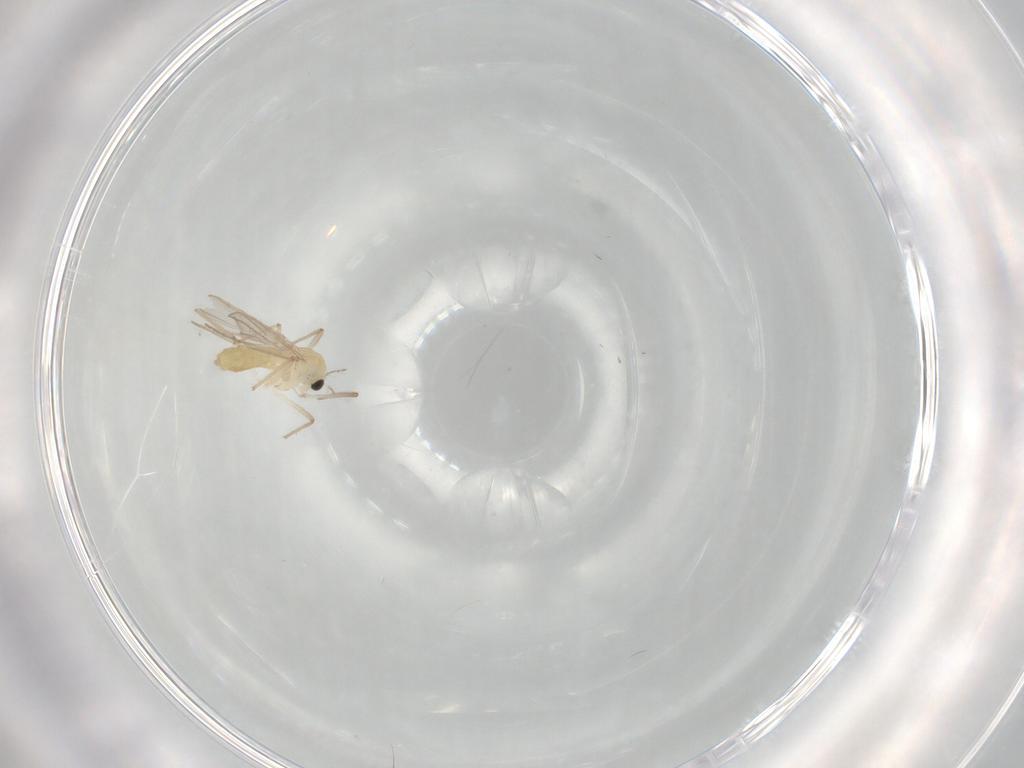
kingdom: Animalia
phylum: Arthropoda
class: Insecta
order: Diptera
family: Chironomidae
